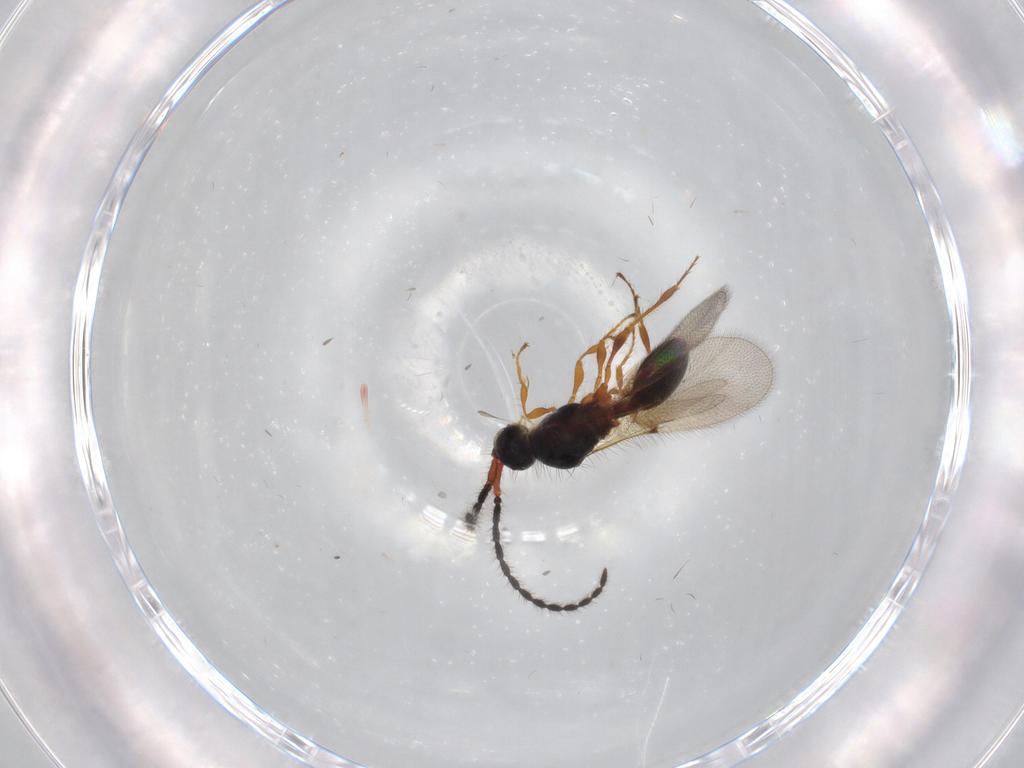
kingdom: Animalia
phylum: Arthropoda
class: Insecta
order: Hymenoptera
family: Diapriidae
